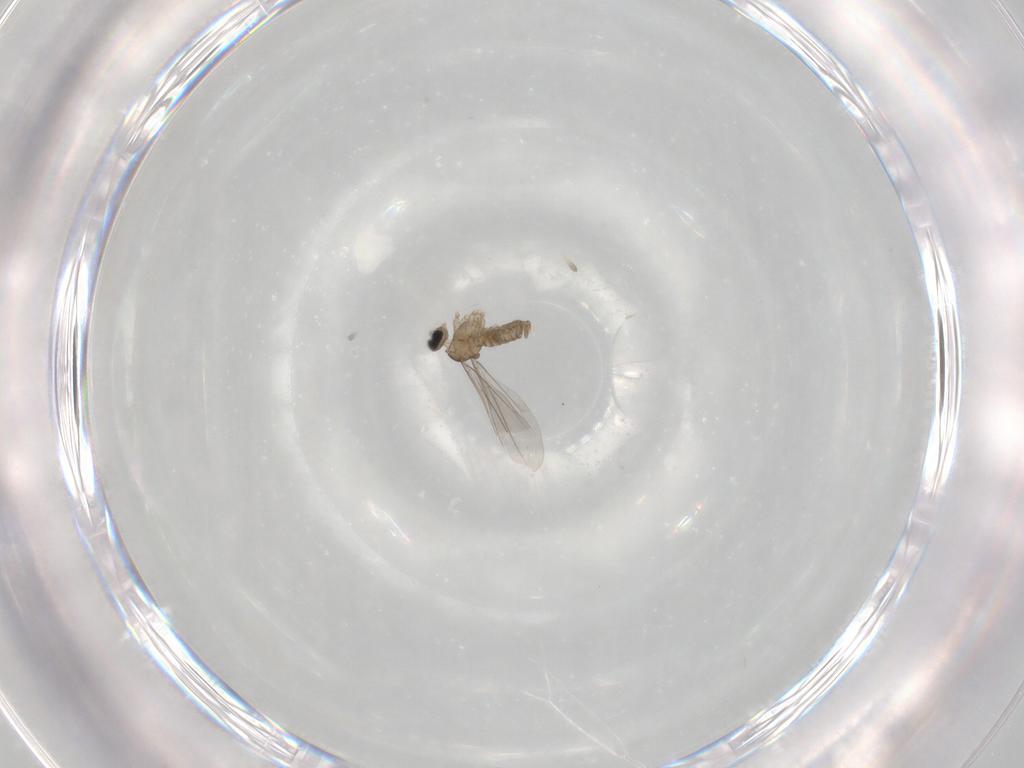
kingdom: Animalia
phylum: Arthropoda
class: Insecta
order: Diptera
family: Cecidomyiidae
